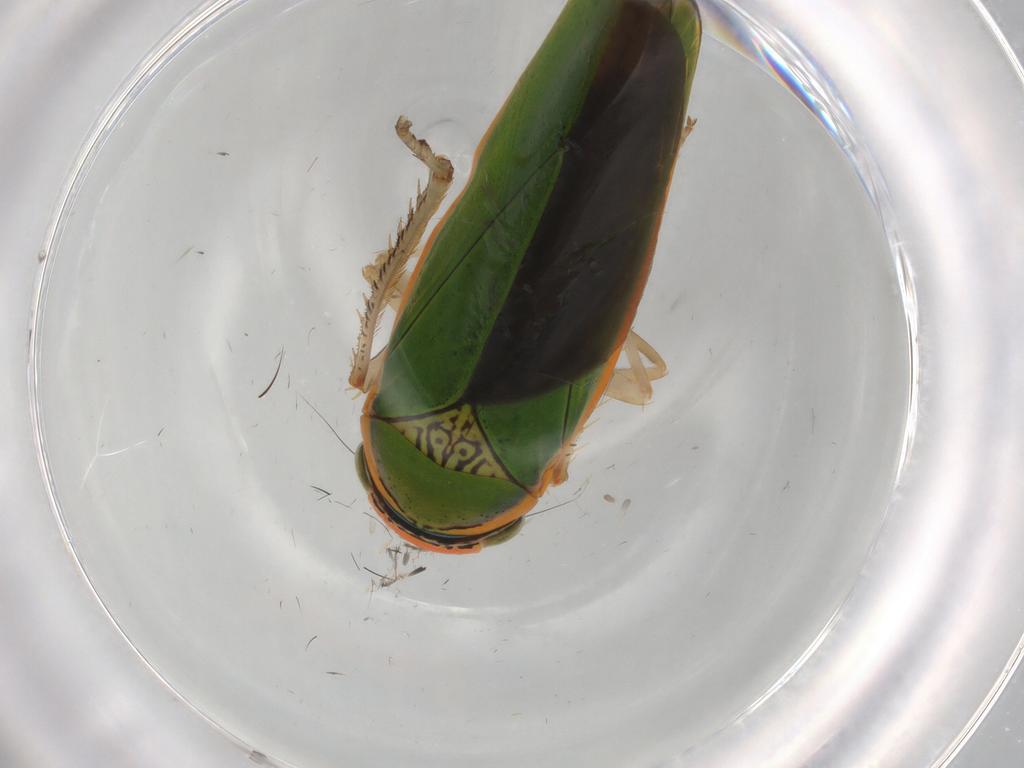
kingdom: Animalia
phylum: Arthropoda
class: Insecta
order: Hemiptera
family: Cicadellidae
